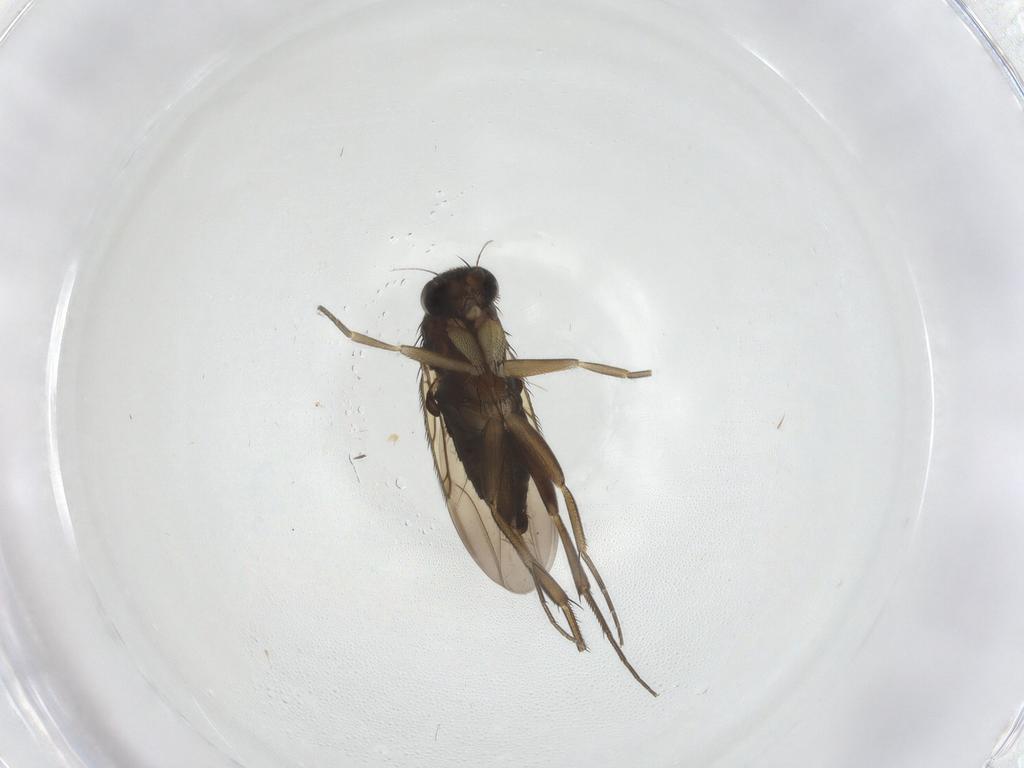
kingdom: Animalia
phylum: Arthropoda
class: Insecta
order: Diptera
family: Phoridae
